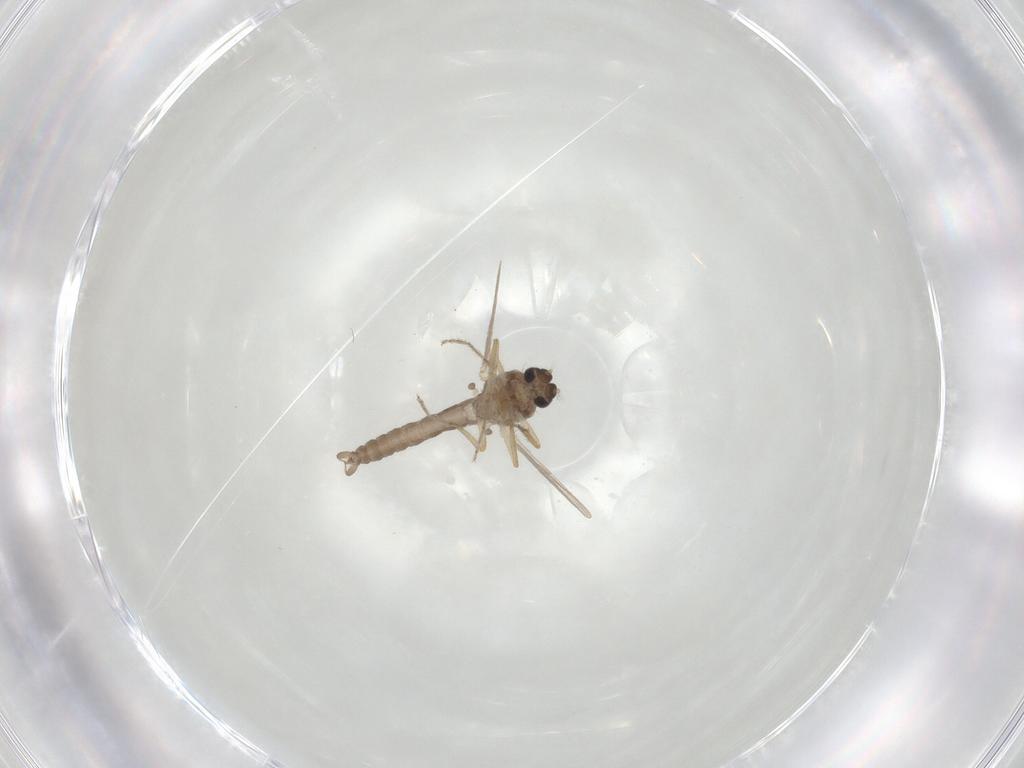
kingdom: Animalia
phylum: Arthropoda
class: Insecta
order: Diptera
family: Ceratopogonidae
